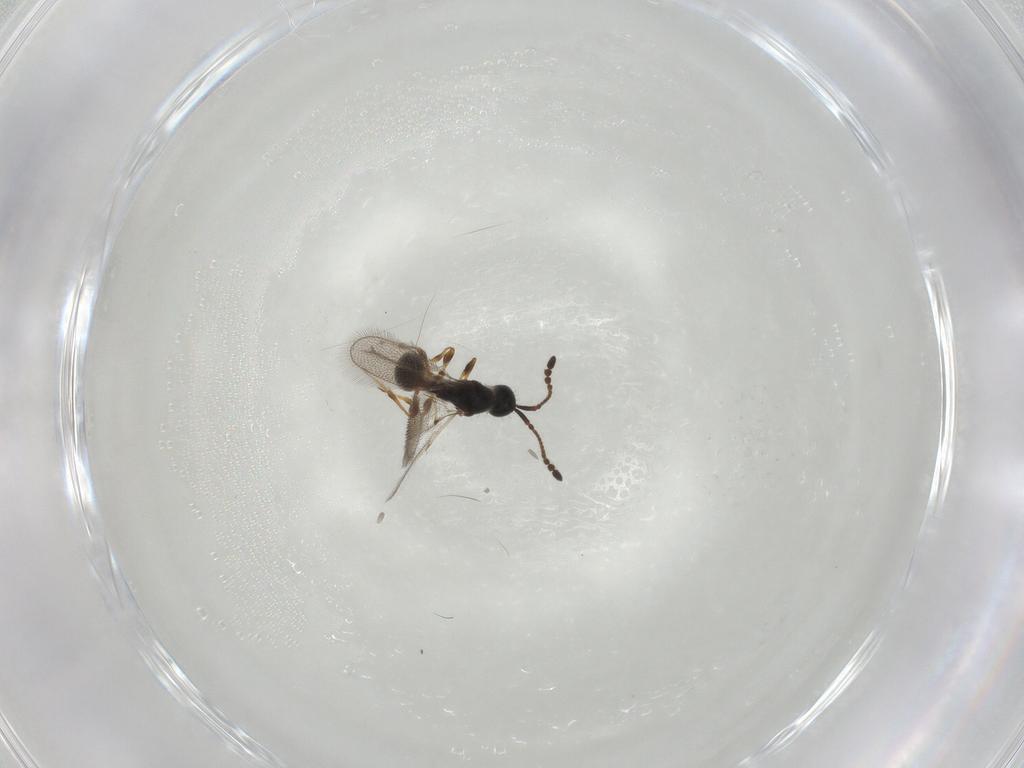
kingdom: Animalia
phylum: Arthropoda
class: Insecta
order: Hymenoptera
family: Diapriidae
